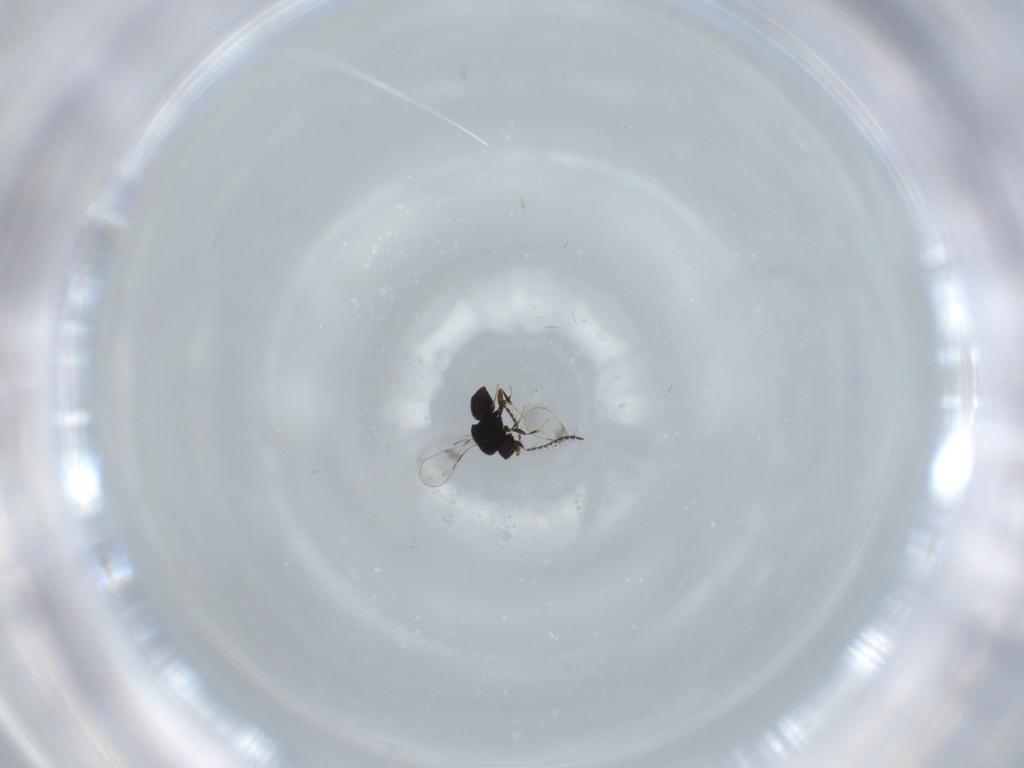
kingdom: Animalia
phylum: Arthropoda
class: Insecta
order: Hymenoptera
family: Mymaridae
